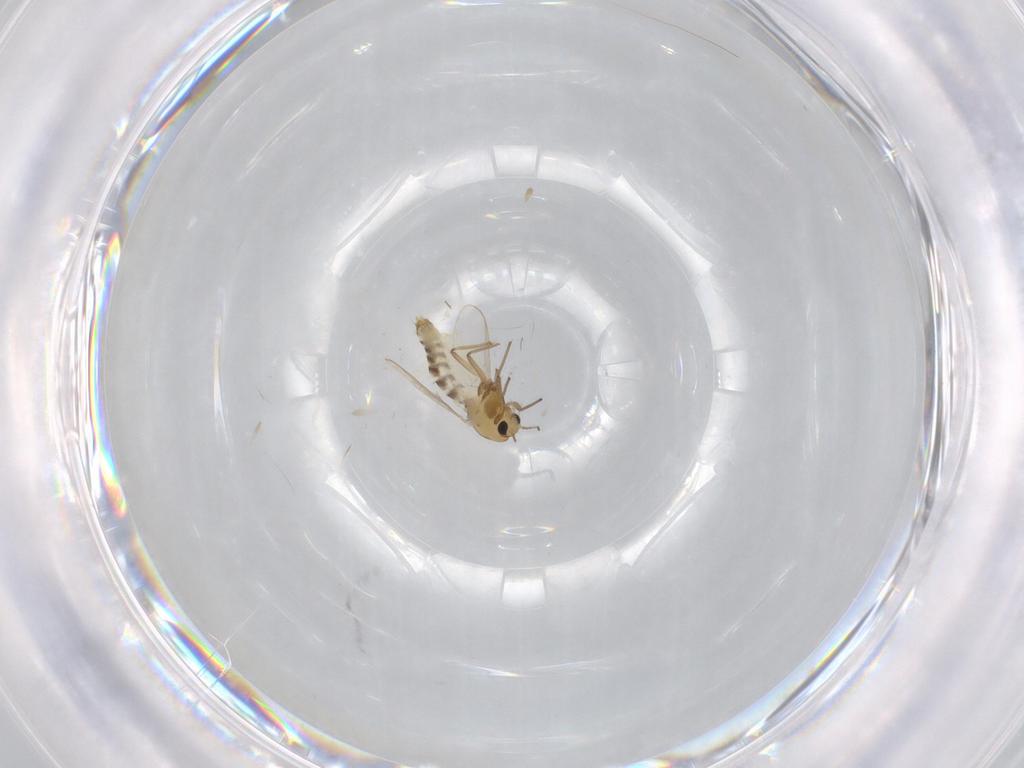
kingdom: Animalia
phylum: Arthropoda
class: Insecta
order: Diptera
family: Chironomidae
